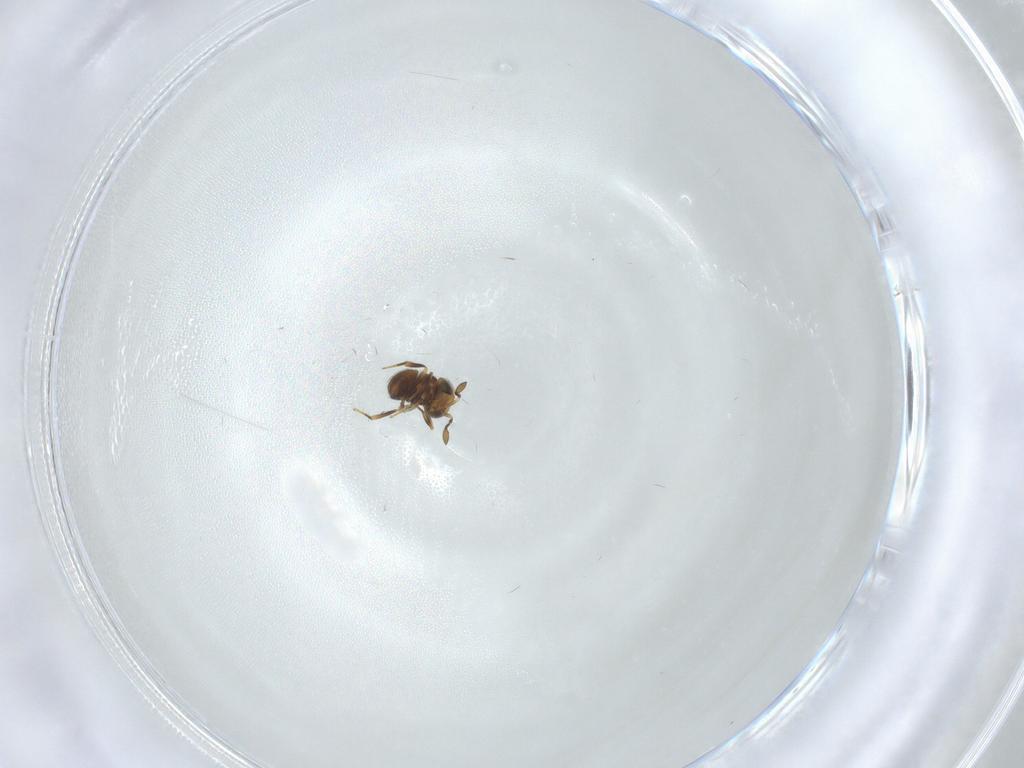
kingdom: Animalia
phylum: Arthropoda
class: Insecta
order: Hymenoptera
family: Scelionidae
